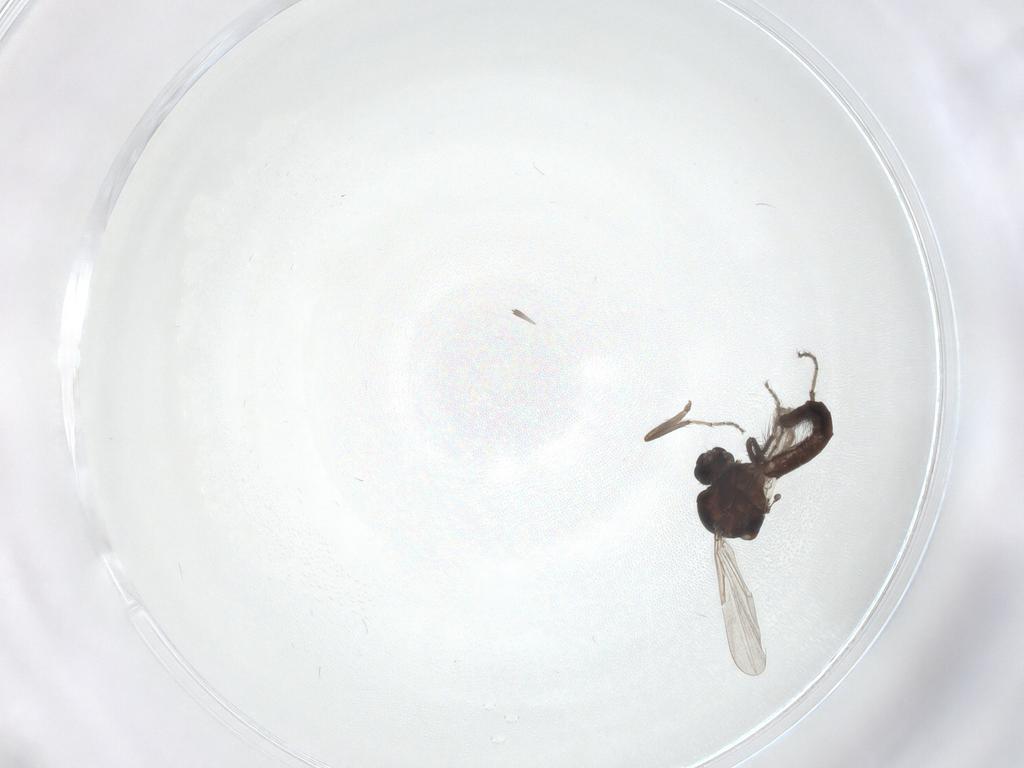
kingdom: Animalia
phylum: Arthropoda
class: Insecta
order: Diptera
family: Ceratopogonidae
